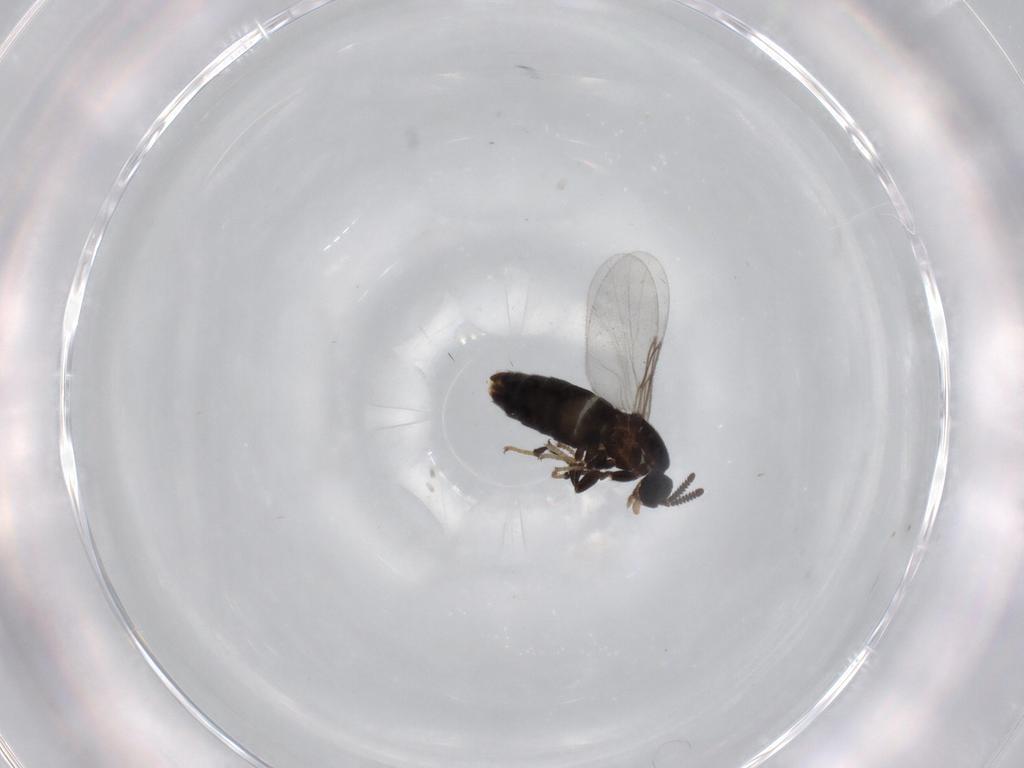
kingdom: Animalia
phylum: Arthropoda
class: Insecta
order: Diptera
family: Scatopsidae
